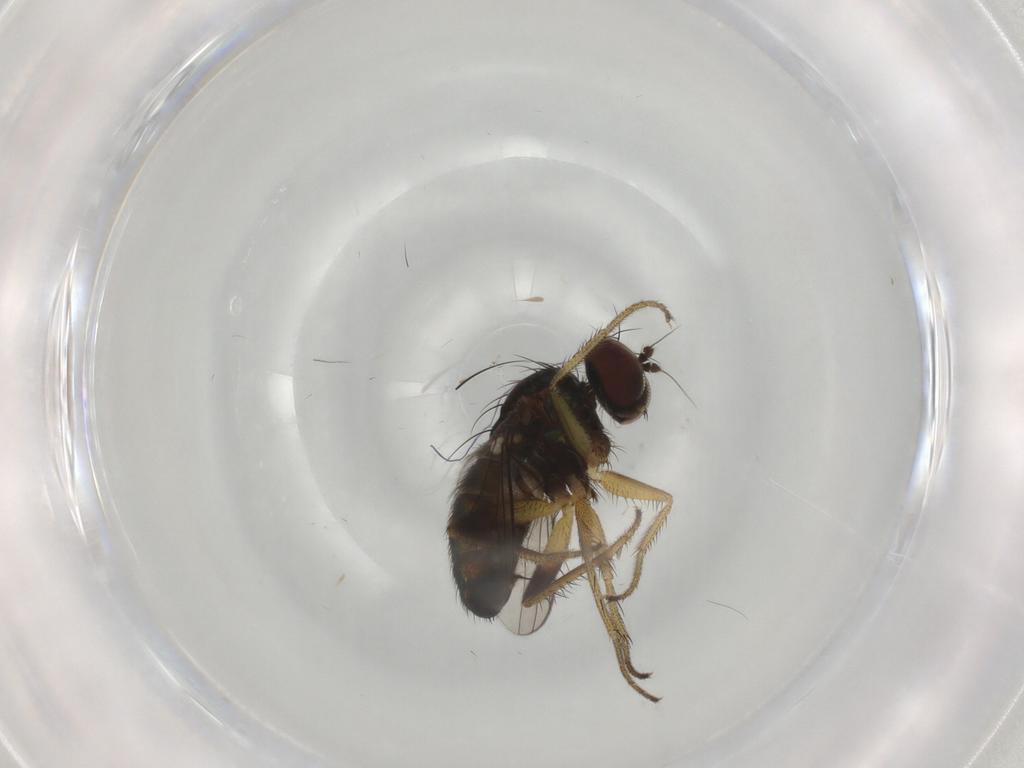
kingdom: Animalia
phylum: Arthropoda
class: Insecta
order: Diptera
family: Dolichopodidae
